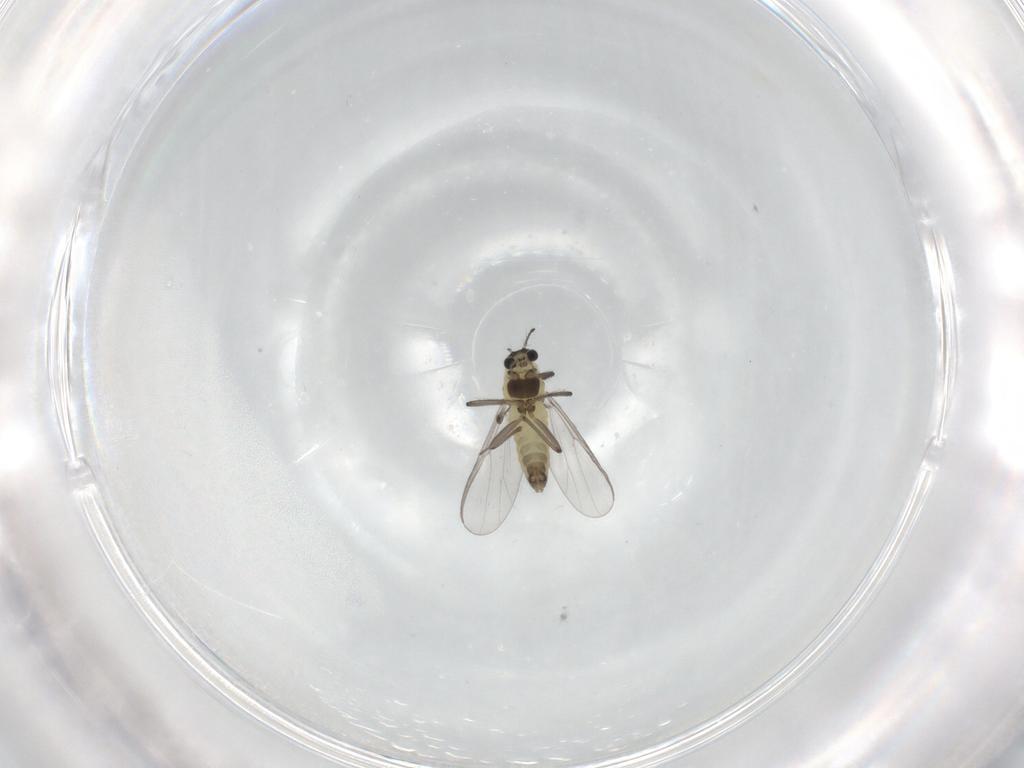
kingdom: Animalia
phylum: Arthropoda
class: Insecta
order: Diptera
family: Chironomidae
